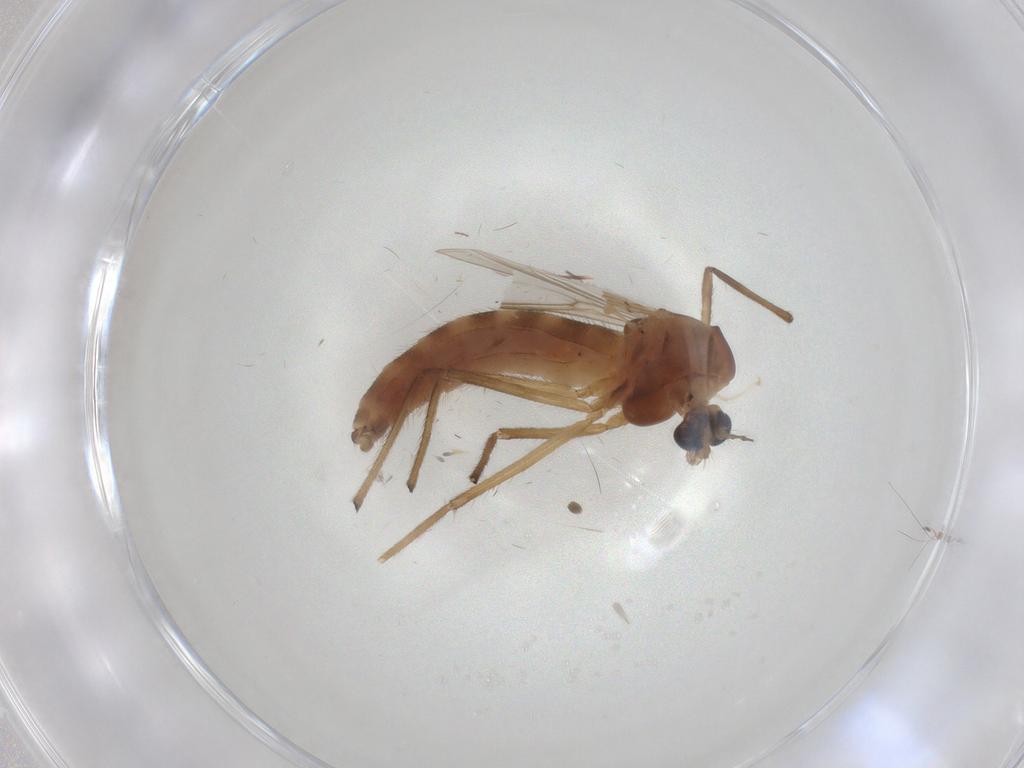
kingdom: Animalia
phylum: Arthropoda
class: Insecta
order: Diptera
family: Chironomidae
